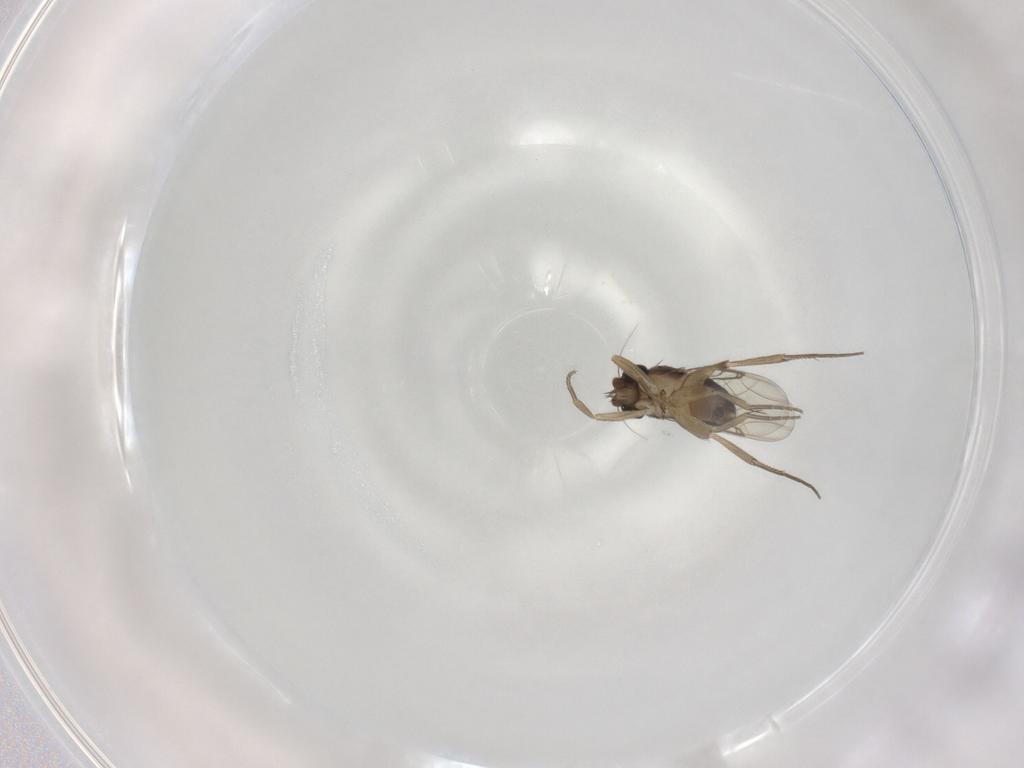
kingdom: Animalia
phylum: Arthropoda
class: Insecta
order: Diptera
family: Phoridae
